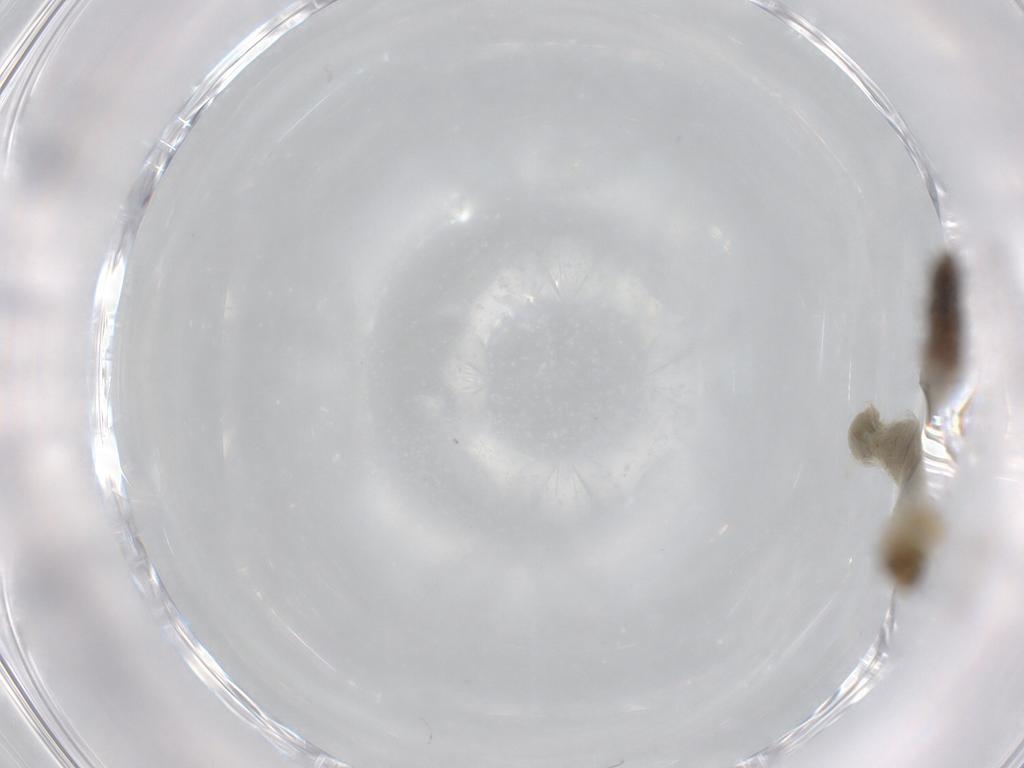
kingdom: Animalia
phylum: Arthropoda
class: Insecta
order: Diptera
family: Chironomidae
